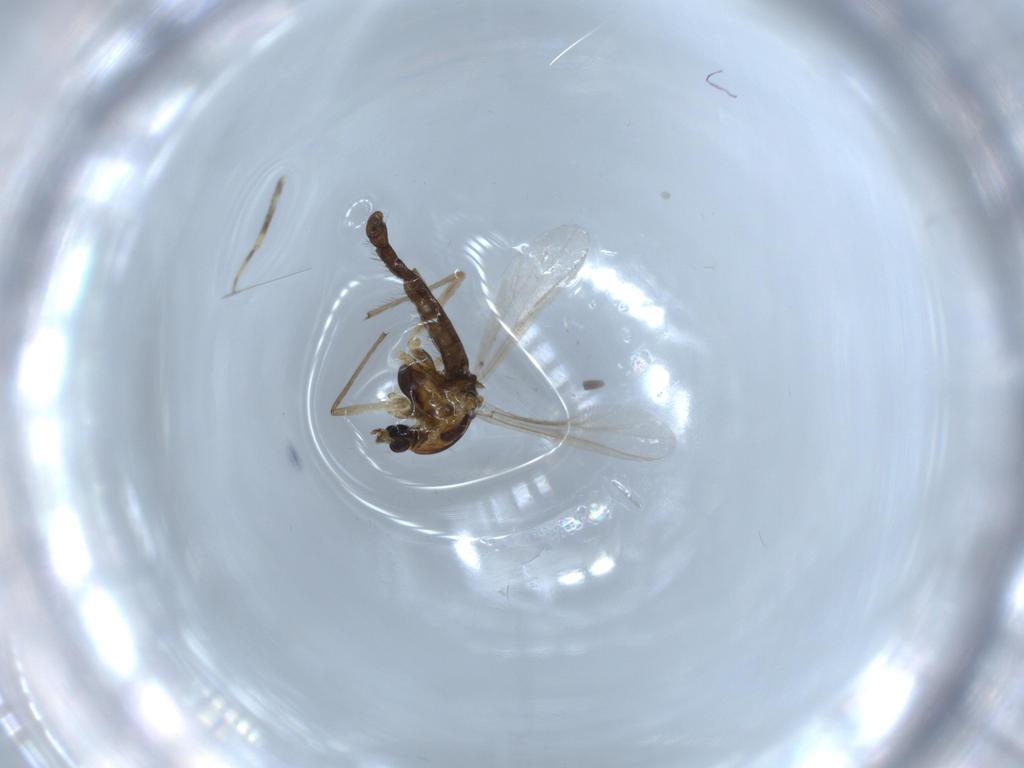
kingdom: Animalia
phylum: Arthropoda
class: Insecta
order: Diptera
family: Chironomidae
